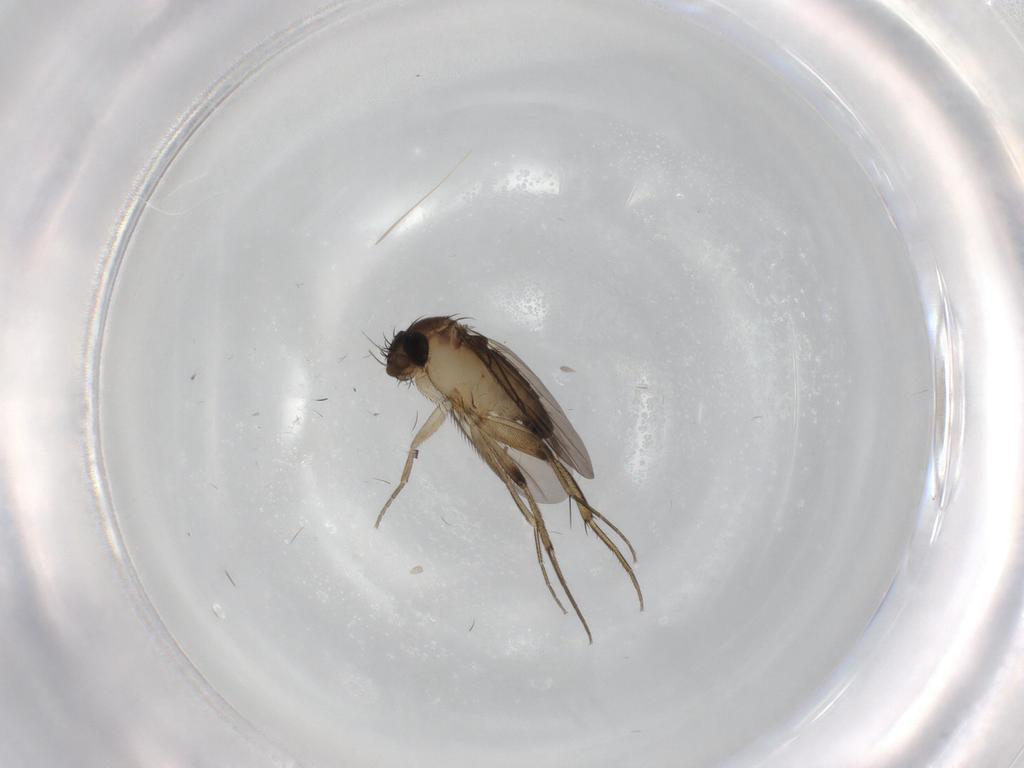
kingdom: Animalia
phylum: Arthropoda
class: Insecta
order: Diptera
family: Phoridae
